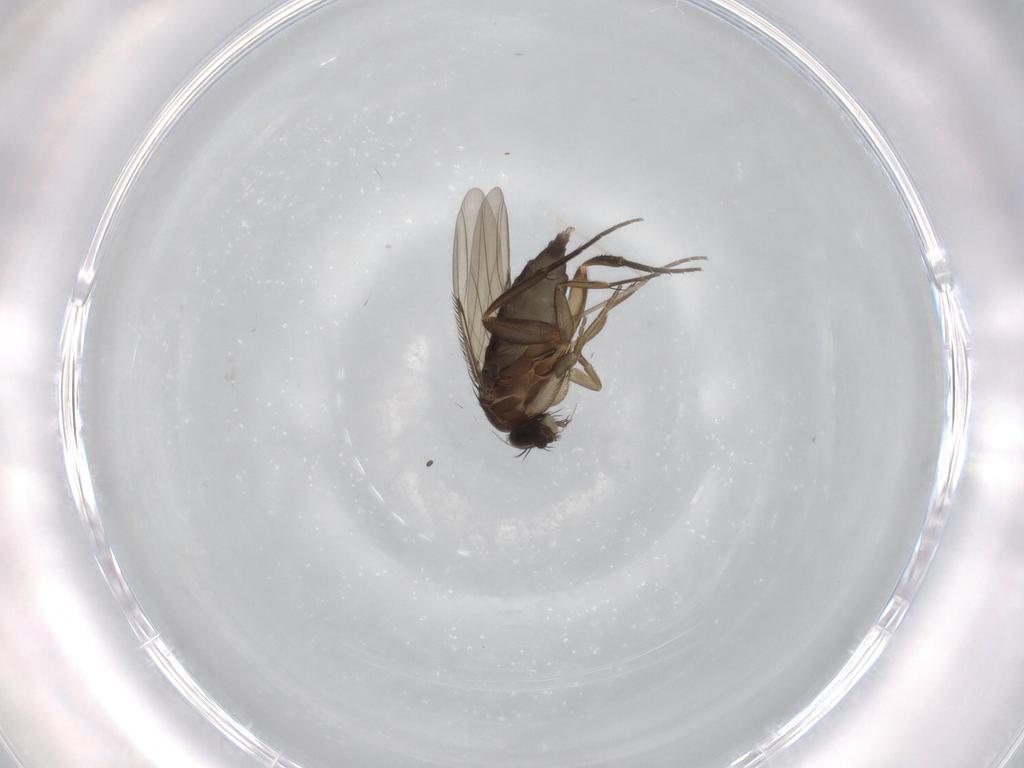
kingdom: Animalia
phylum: Arthropoda
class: Insecta
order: Diptera
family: Phoridae
